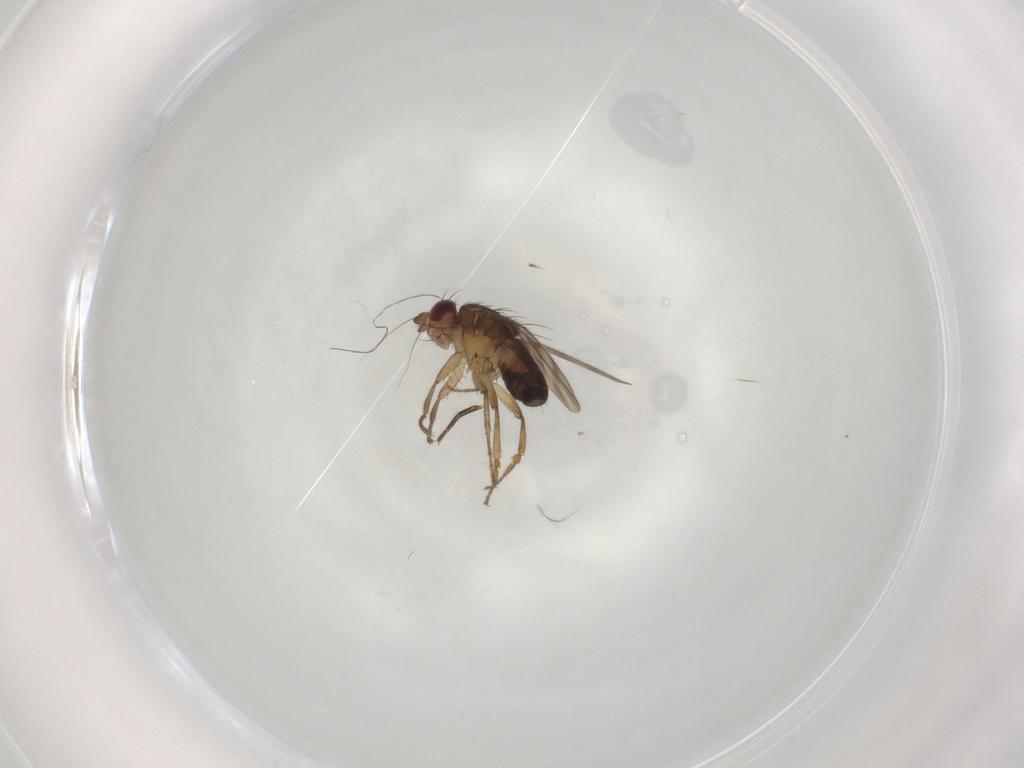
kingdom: Animalia
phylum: Arthropoda
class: Insecta
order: Diptera
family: Sphaeroceridae
